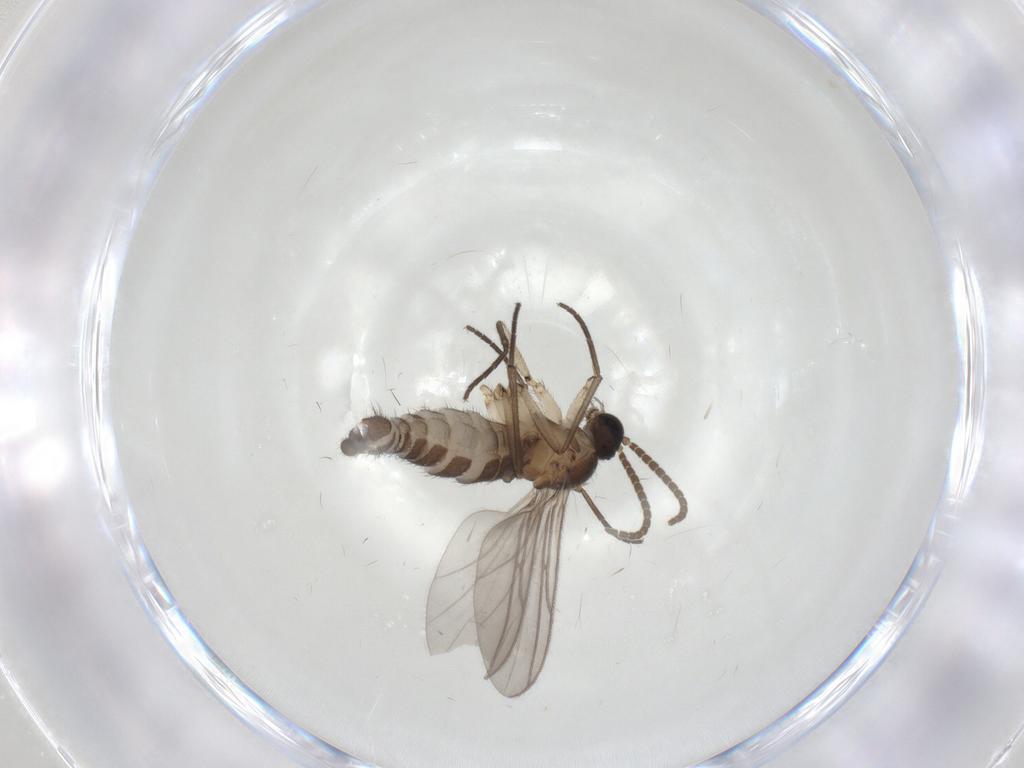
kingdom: Animalia
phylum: Arthropoda
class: Insecta
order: Diptera
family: Sciaridae
